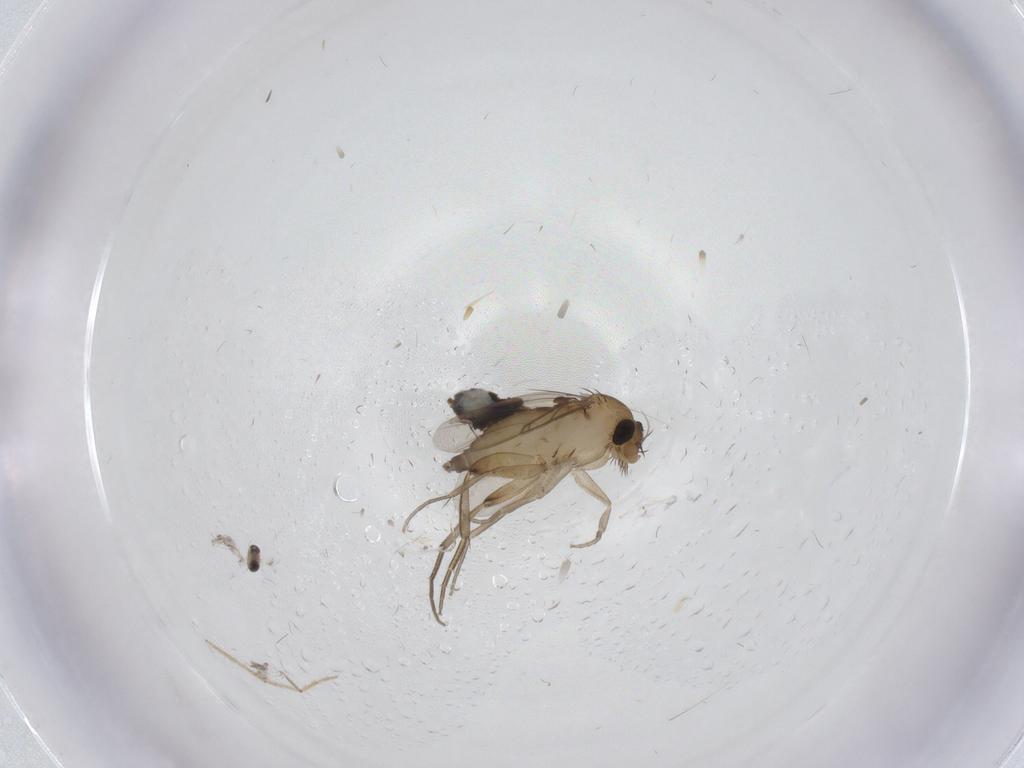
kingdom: Animalia
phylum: Arthropoda
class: Insecta
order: Diptera
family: Phoridae
